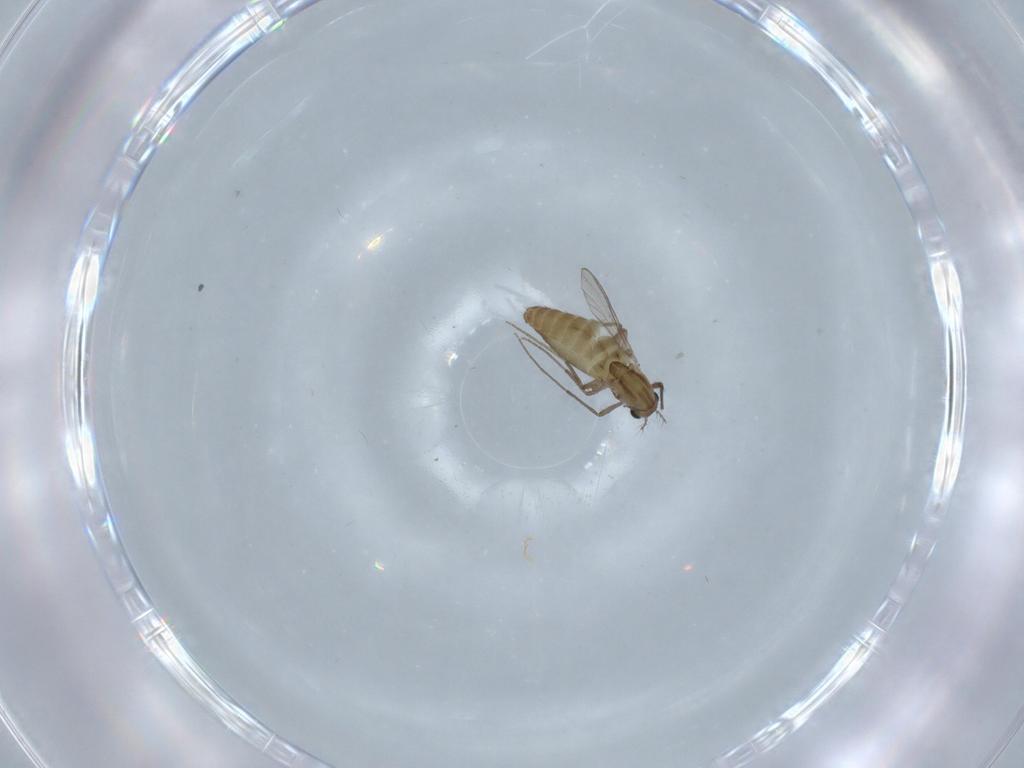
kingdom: Animalia
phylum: Arthropoda
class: Insecta
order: Diptera
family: Chironomidae
